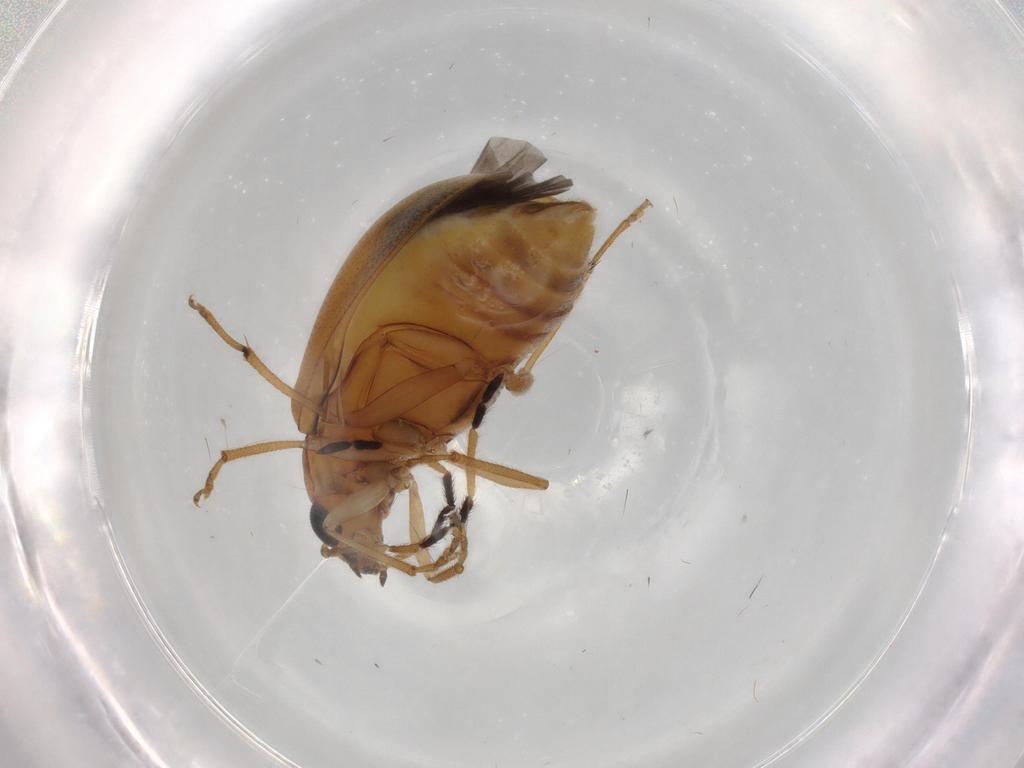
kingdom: Animalia
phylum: Arthropoda
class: Insecta
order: Coleoptera
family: Chrysomelidae
